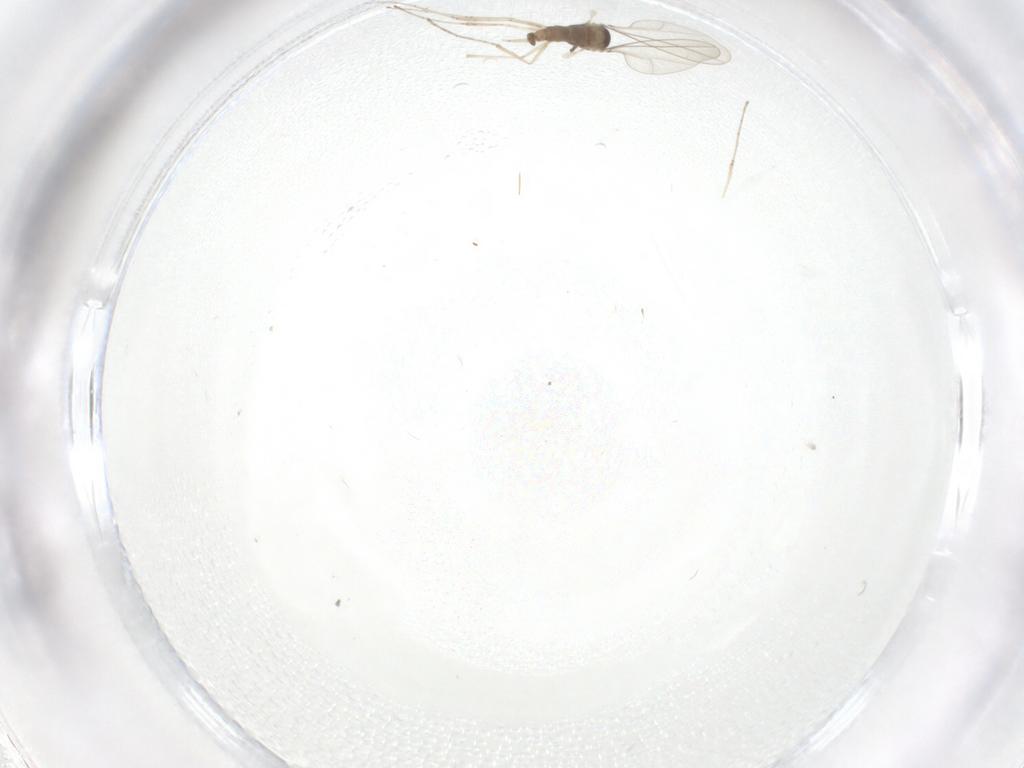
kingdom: Animalia
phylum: Arthropoda
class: Insecta
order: Diptera
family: Cecidomyiidae
